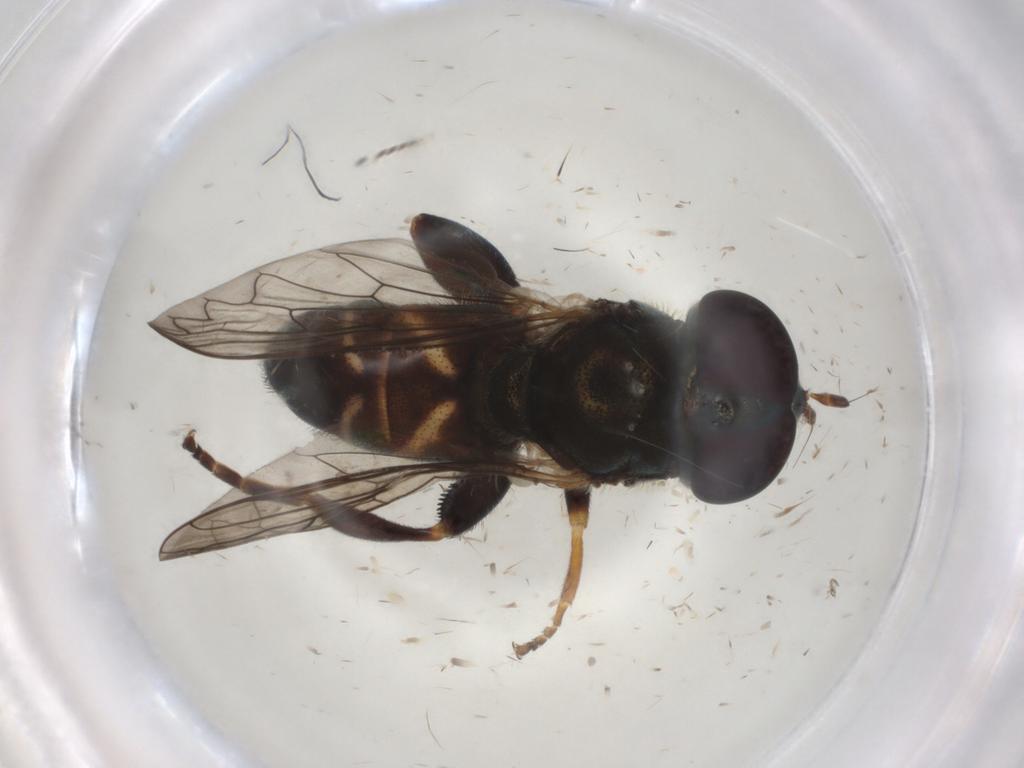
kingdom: Animalia
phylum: Arthropoda
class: Insecta
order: Diptera
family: Syrphidae
